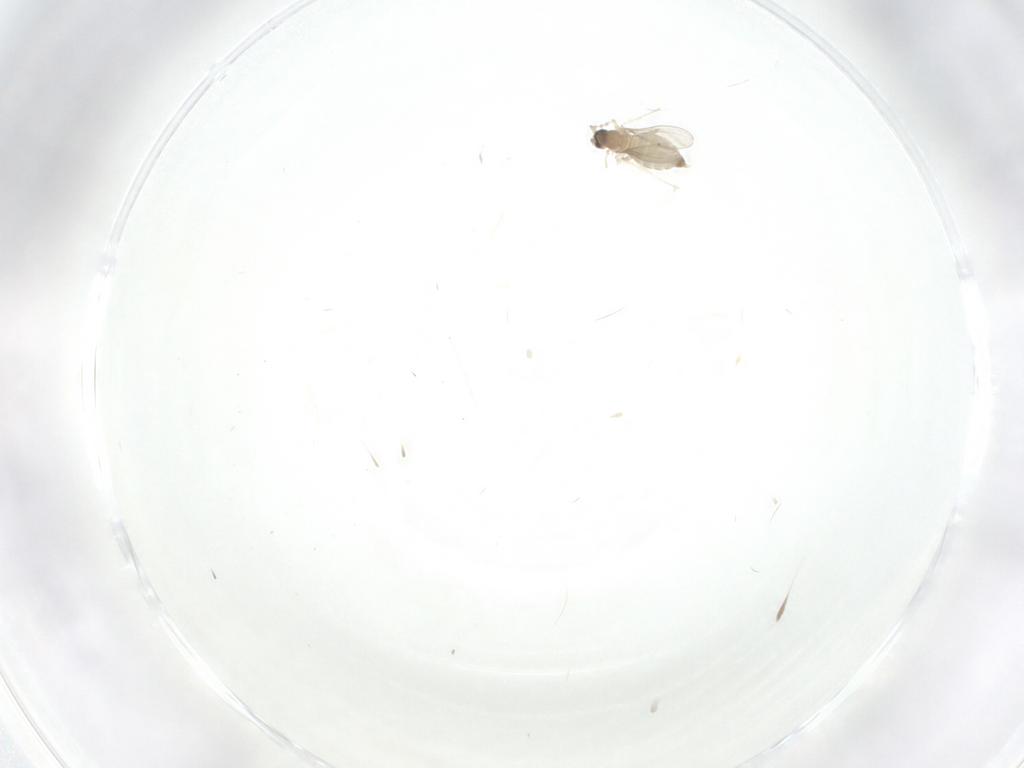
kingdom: Animalia
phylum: Arthropoda
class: Insecta
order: Diptera
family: Cecidomyiidae
